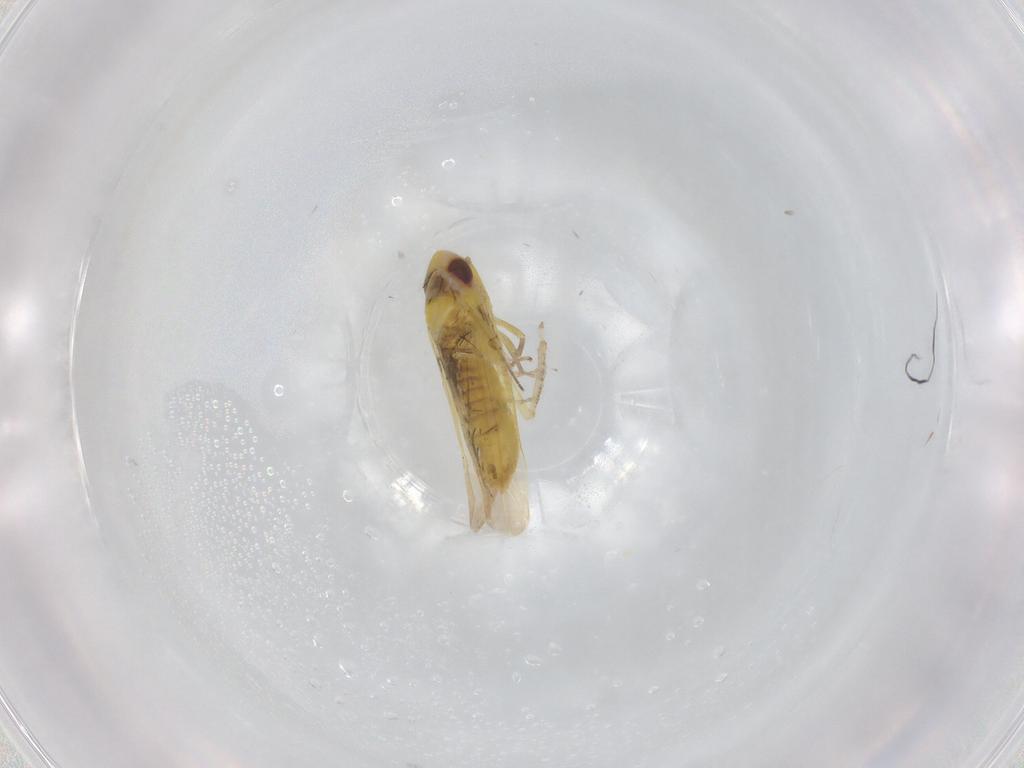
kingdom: Animalia
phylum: Arthropoda
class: Insecta
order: Hemiptera
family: Cicadellidae
